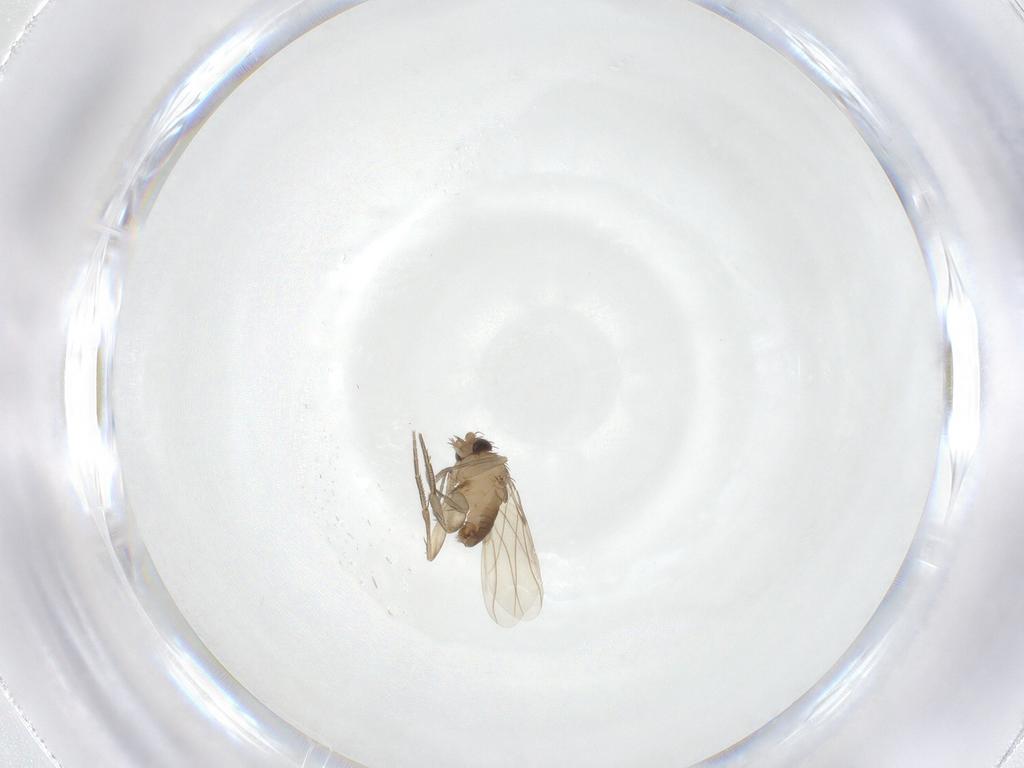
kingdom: Animalia
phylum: Arthropoda
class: Insecta
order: Diptera
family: Phoridae
